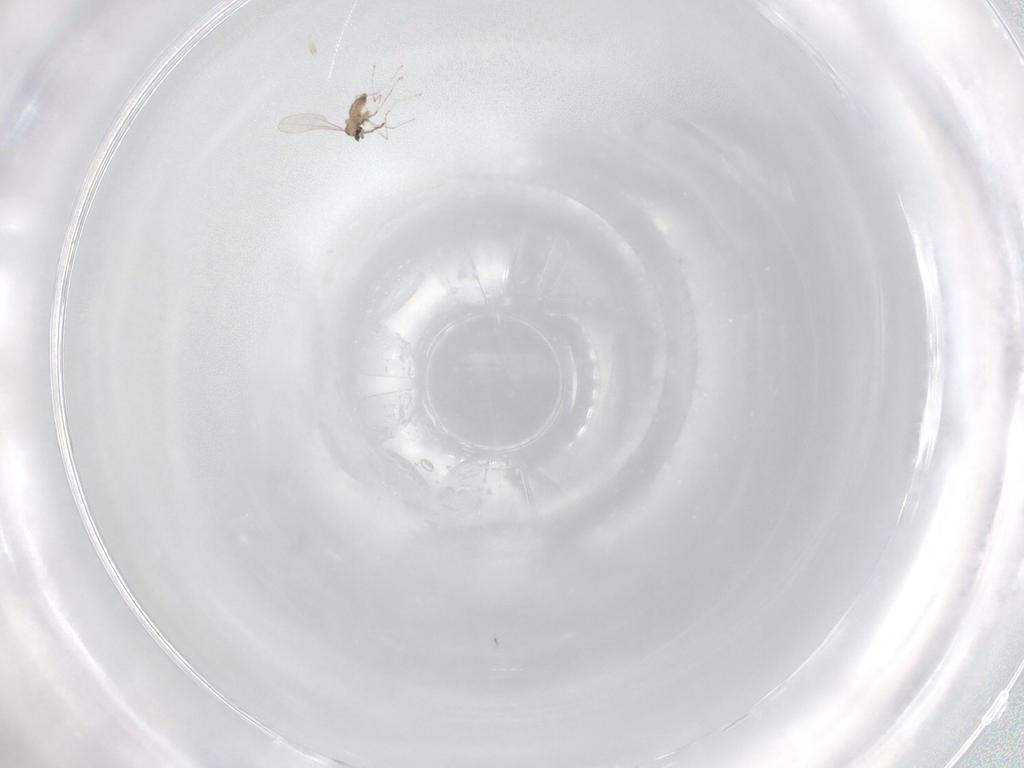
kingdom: Animalia
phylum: Arthropoda
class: Insecta
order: Diptera
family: Cecidomyiidae
